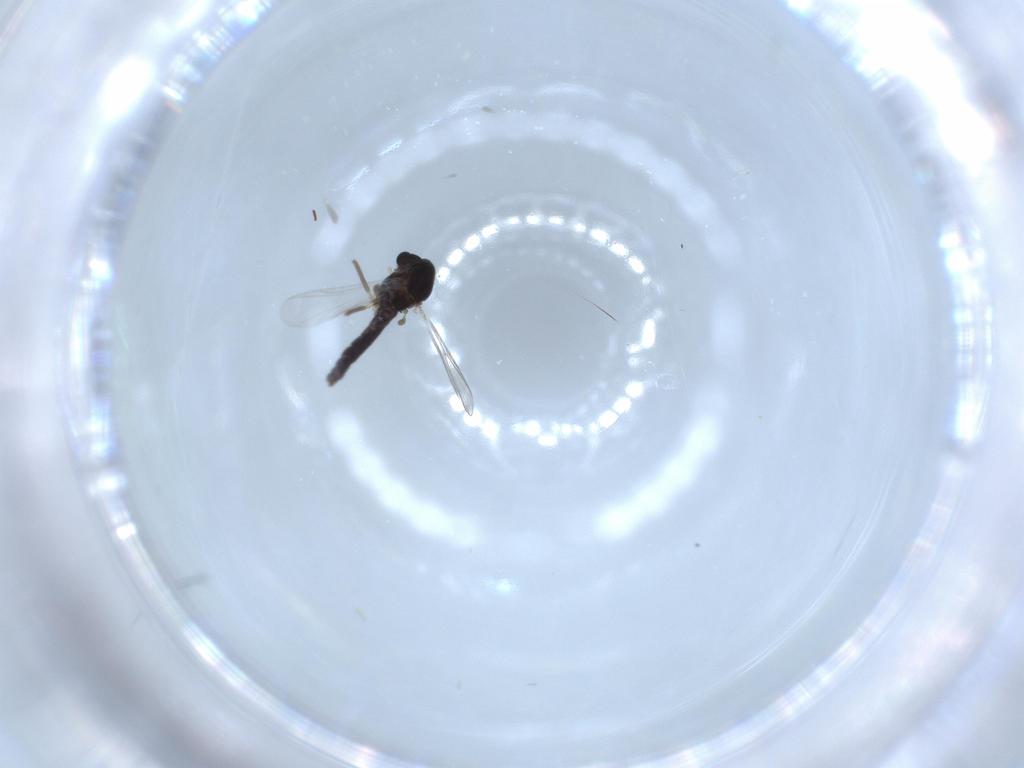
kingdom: Animalia
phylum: Arthropoda
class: Insecta
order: Diptera
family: Chironomidae
